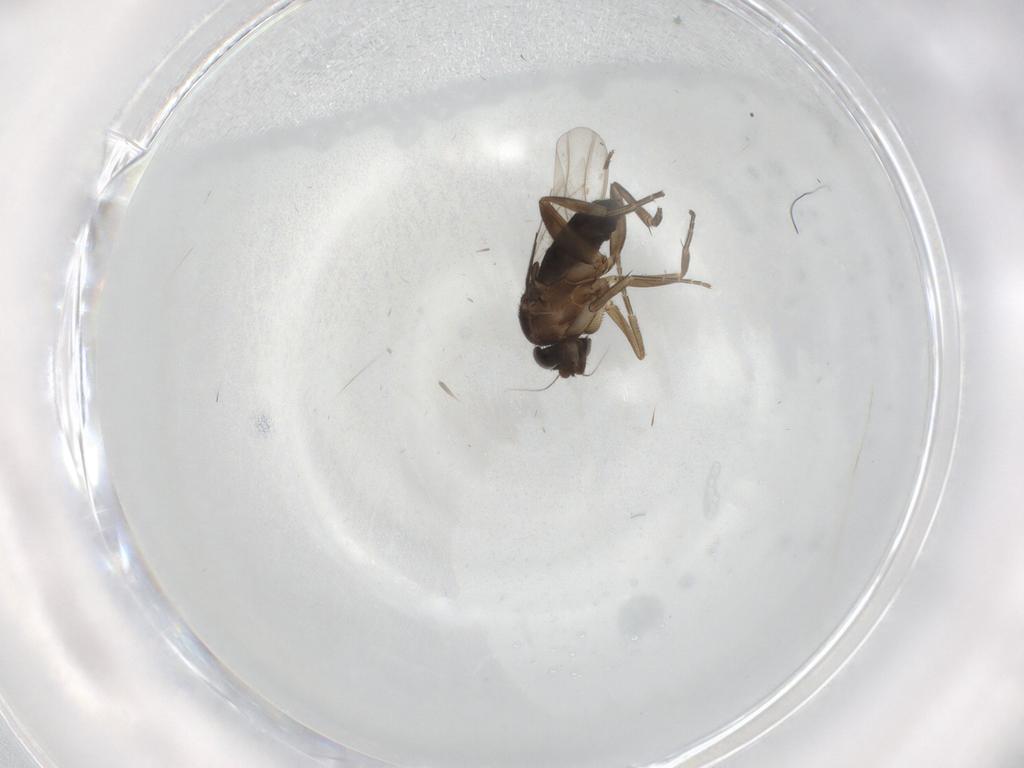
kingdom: Animalia
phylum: Arthropoda
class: Insecta
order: Diptera
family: Phoridae
